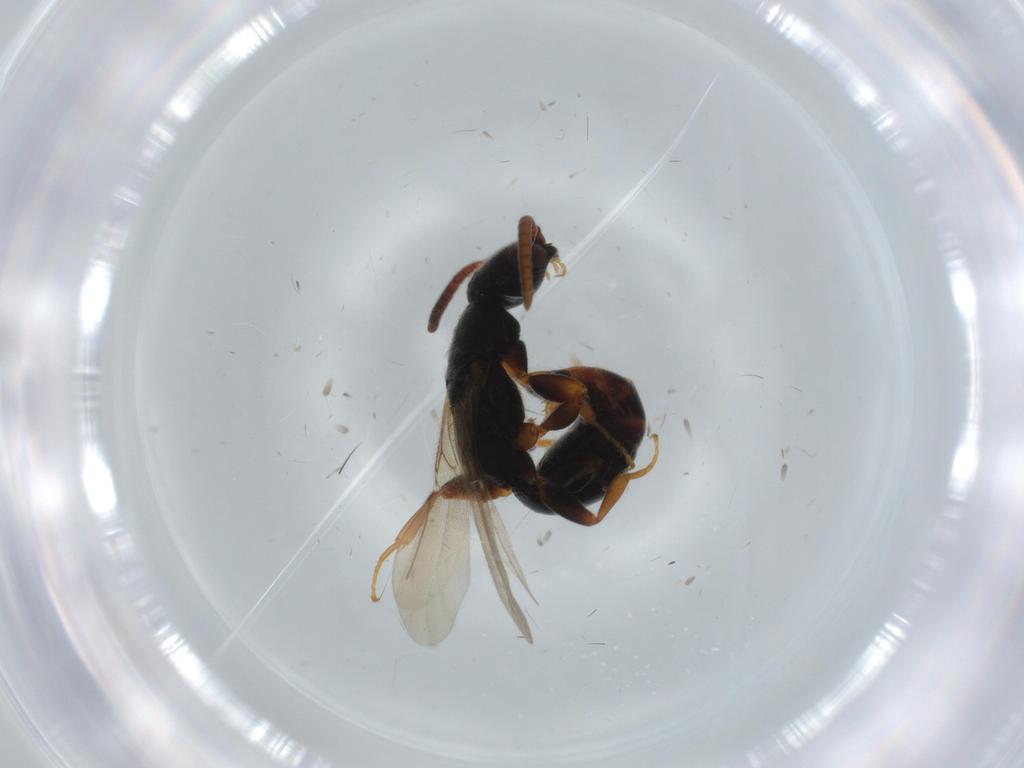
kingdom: Animalia
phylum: Arthropoda
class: Insecta
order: Hymenoptera
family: Bethylidae
